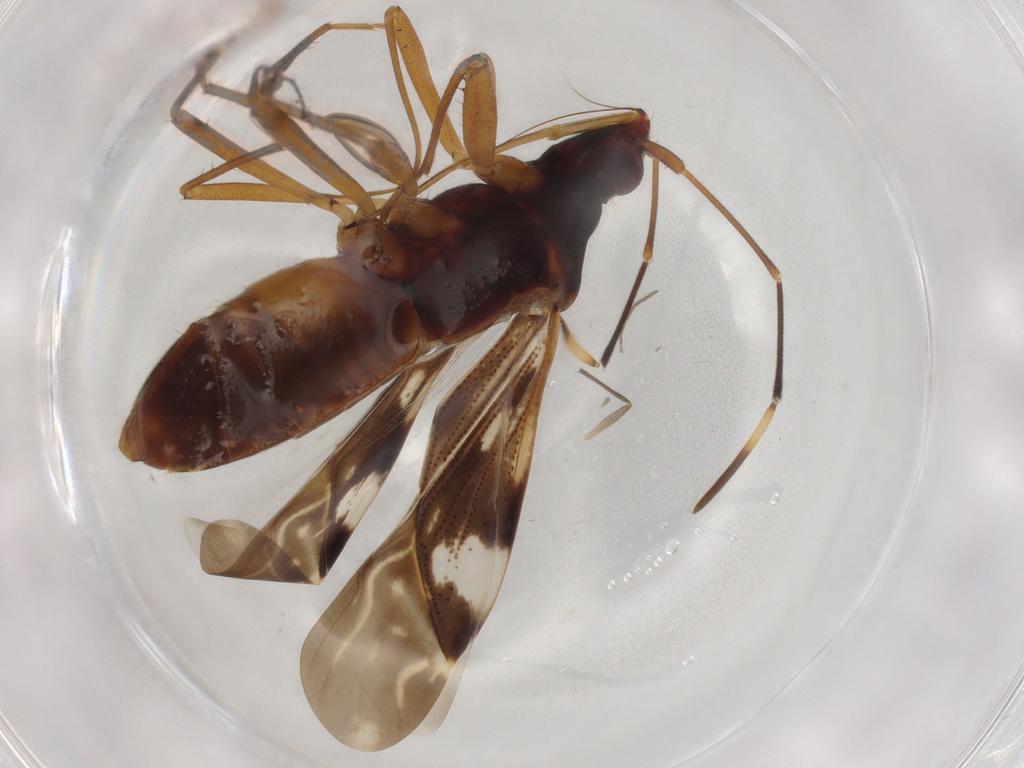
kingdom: Animalia
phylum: Arthropoda
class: Insecta
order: Hemiptera
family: Rhyparochromidae
